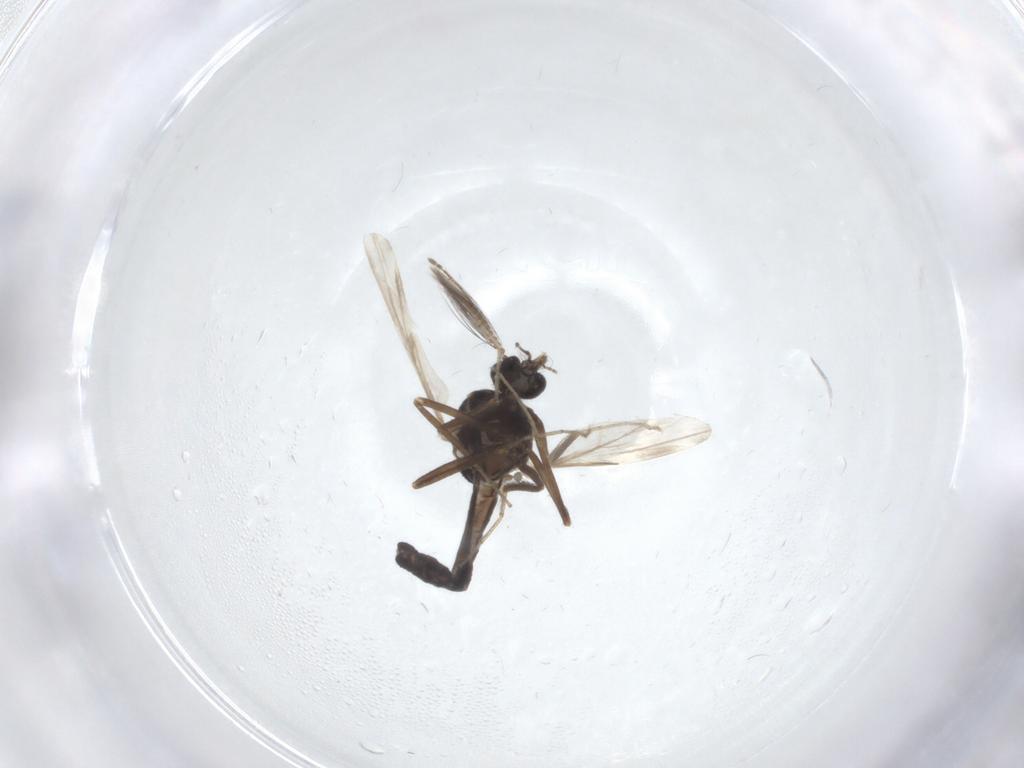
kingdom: Animalia
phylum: Arthropoda
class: Insecta
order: Diptera
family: Ceratopogonidae
